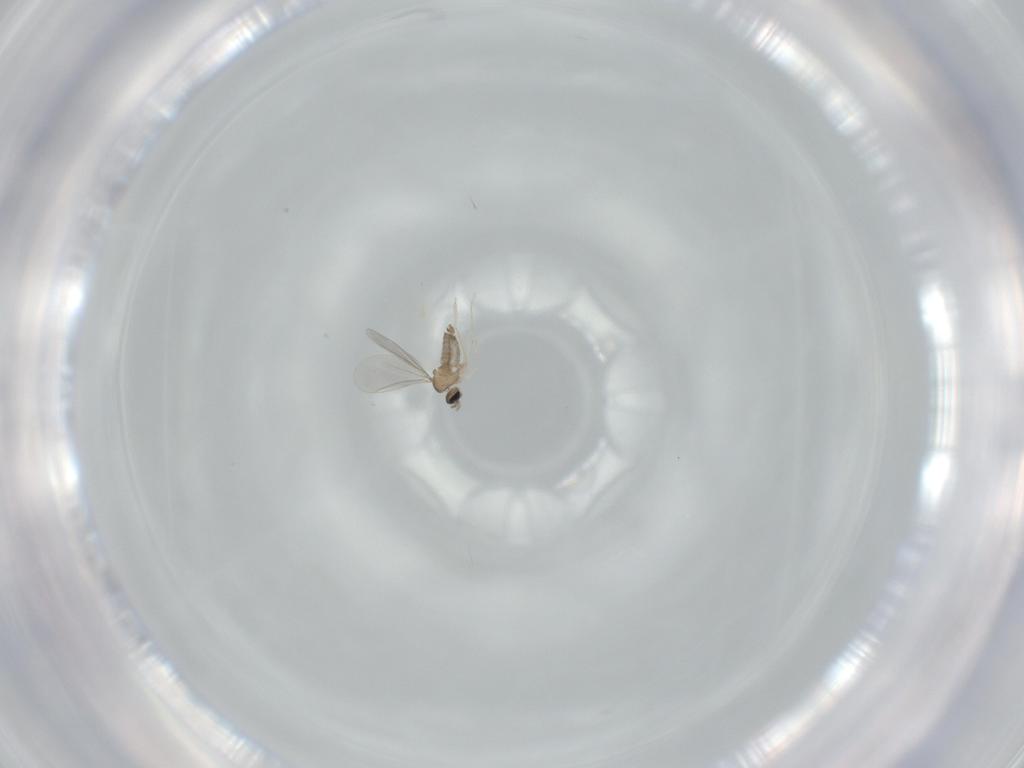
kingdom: Animalia
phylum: Arthropoda
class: Insecta
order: Diptera
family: Cecidomyiidae
